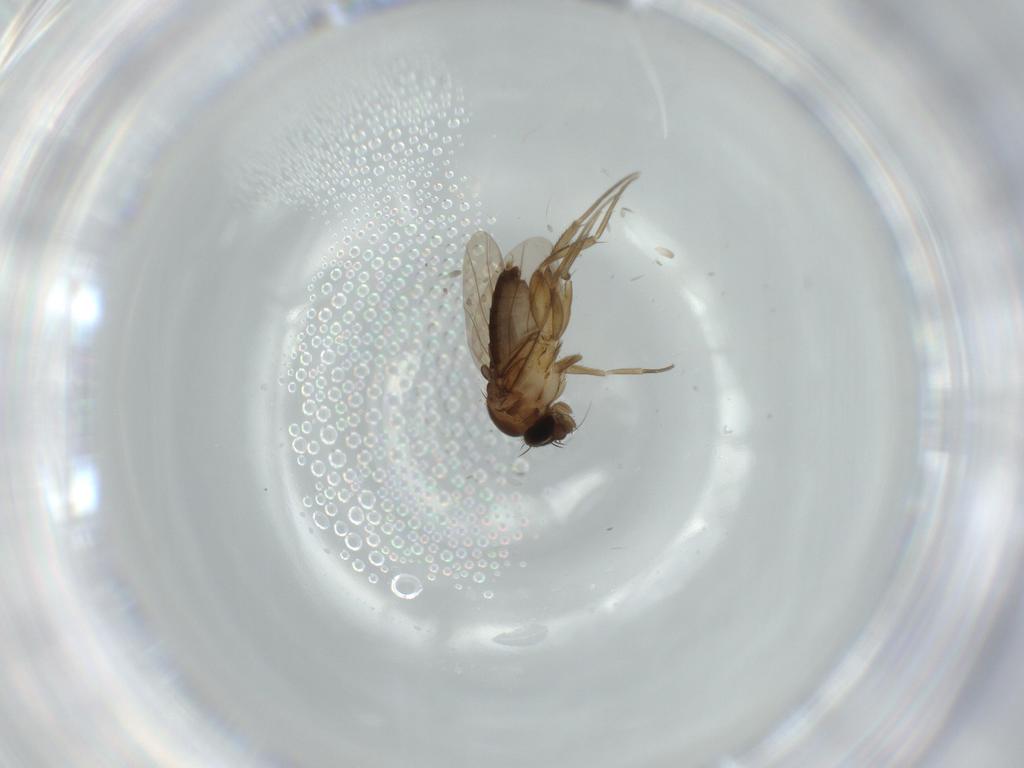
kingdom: Animalia
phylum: Arthropoda
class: Insecta
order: Diptera
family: Phoridae
